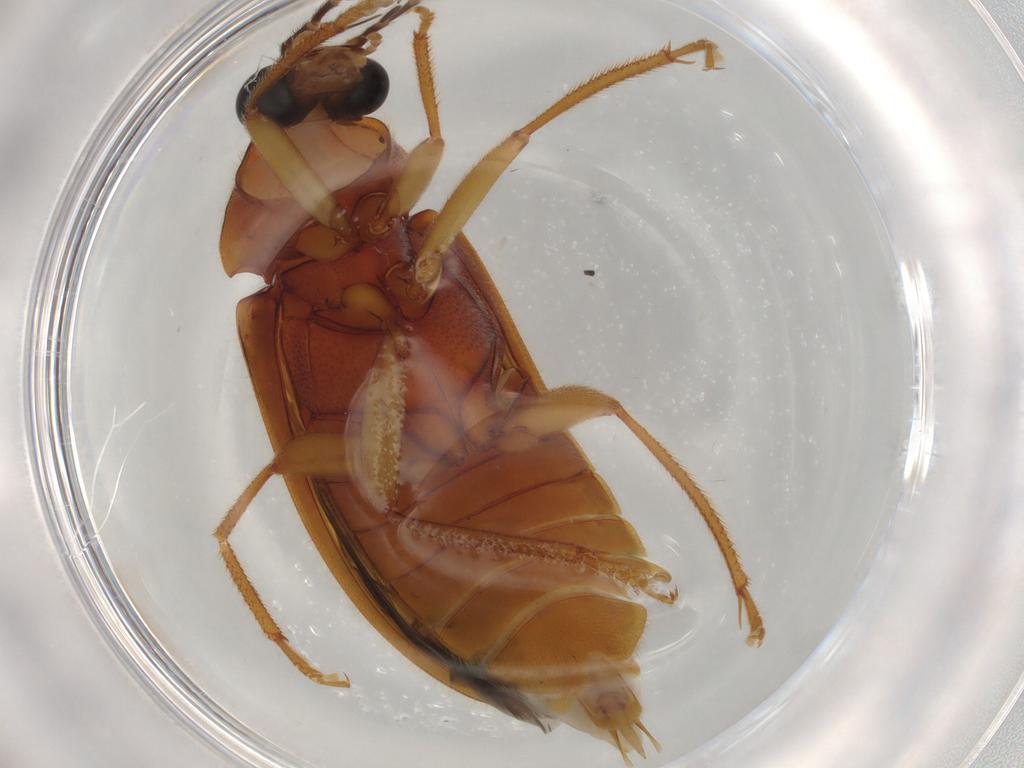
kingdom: Animalia
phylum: Arthropoda
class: Insecta
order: Coleoptera
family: Ptilodactylidae
